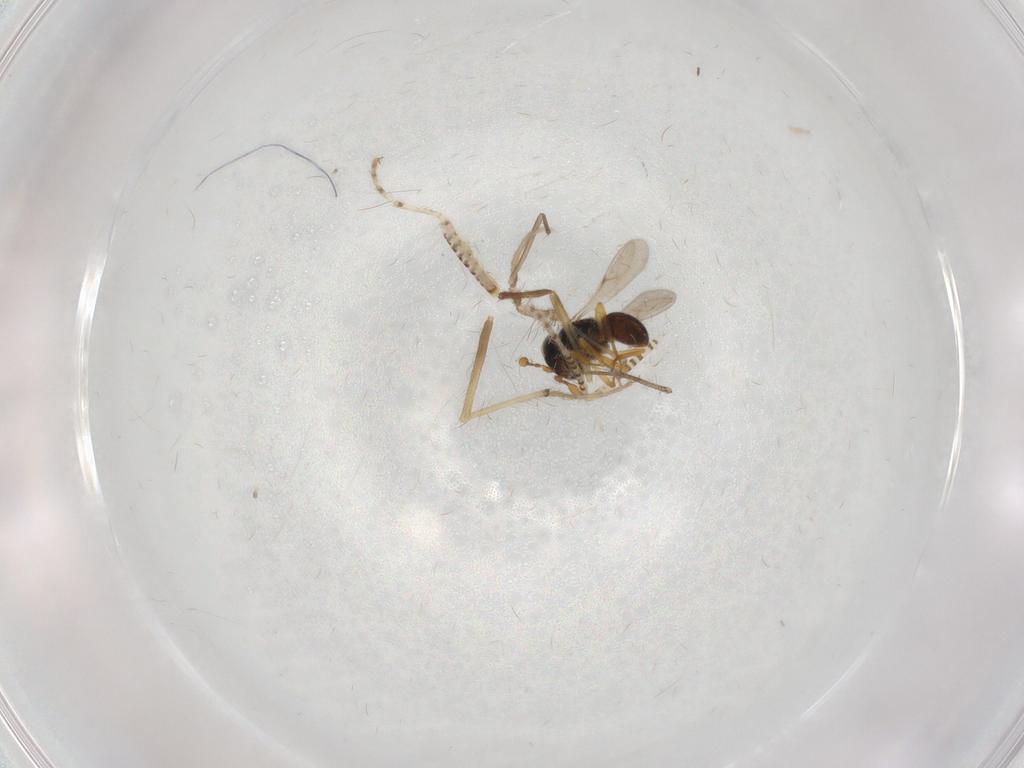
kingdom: Animalia
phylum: Arthropoda
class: Insecta
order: Hymenoptera
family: Scelionidae
